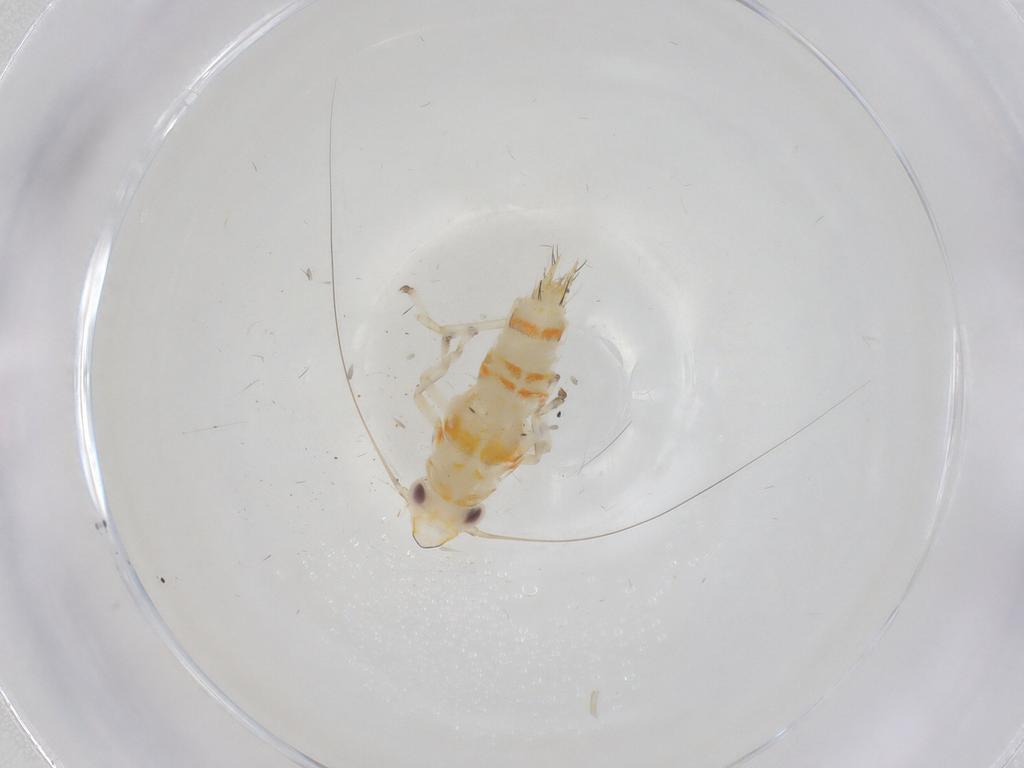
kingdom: Animalia
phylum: Arthropoda
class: Insecta
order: Hemiptera
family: Cicadellidae
